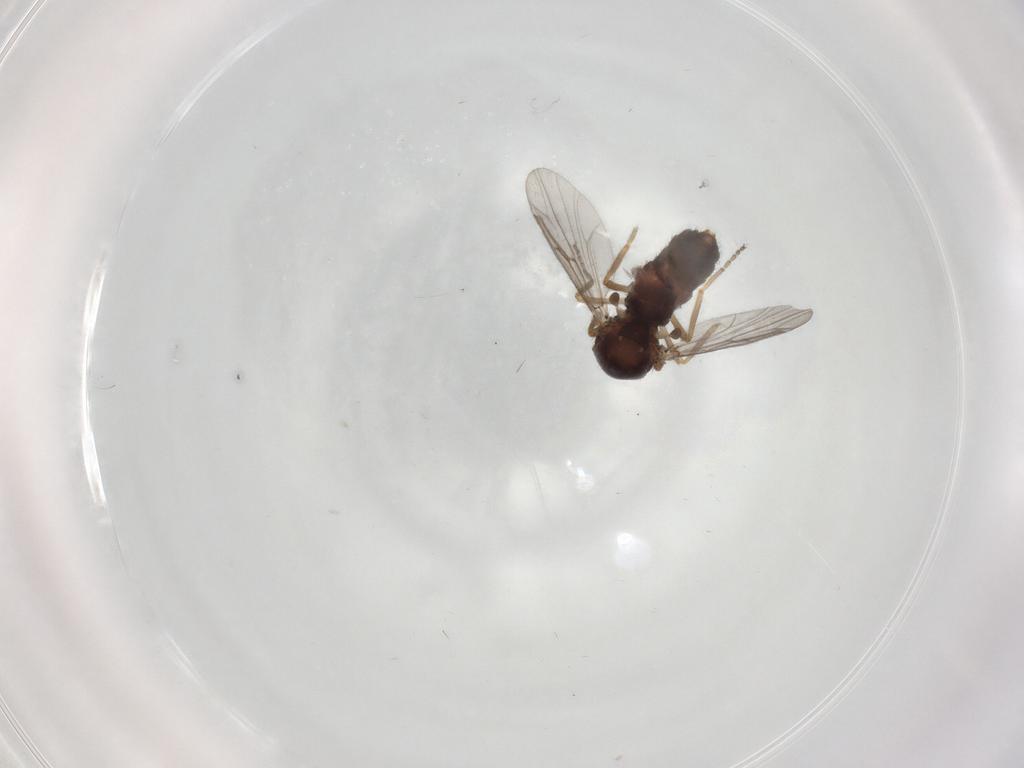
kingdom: Animalia
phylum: Arthropoda
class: Insecta
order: Diptera
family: Ceratopogonidae
